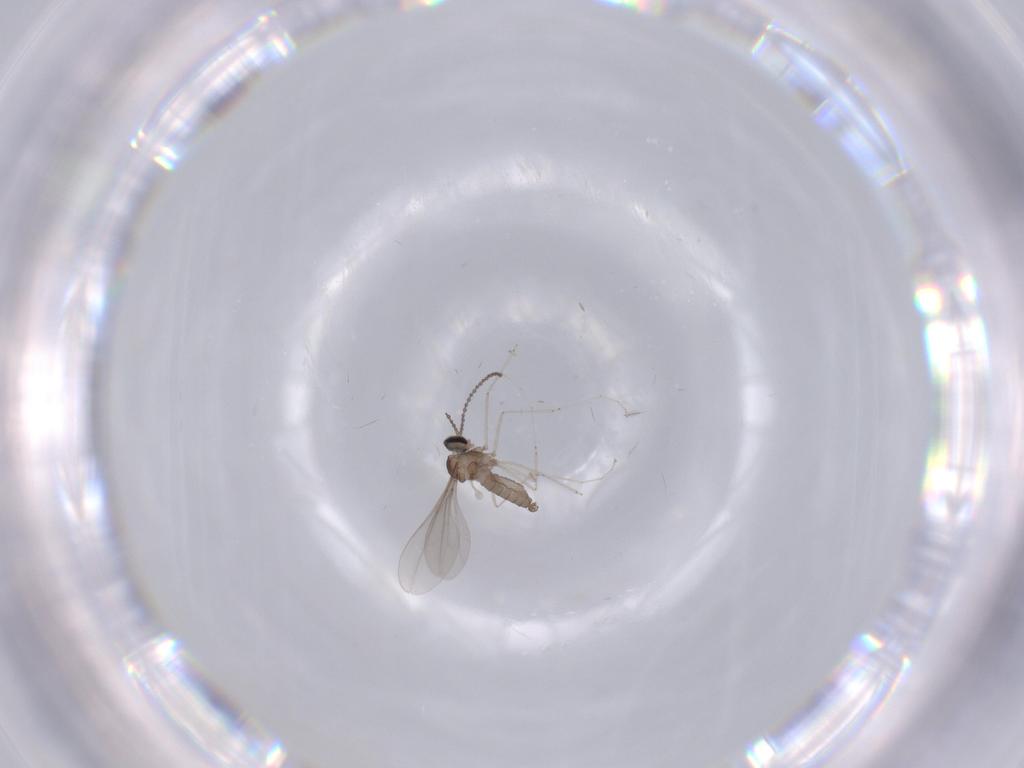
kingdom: Animalia
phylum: Arthropoda
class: Insecta
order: Diptera
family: Cecidomyiidae
